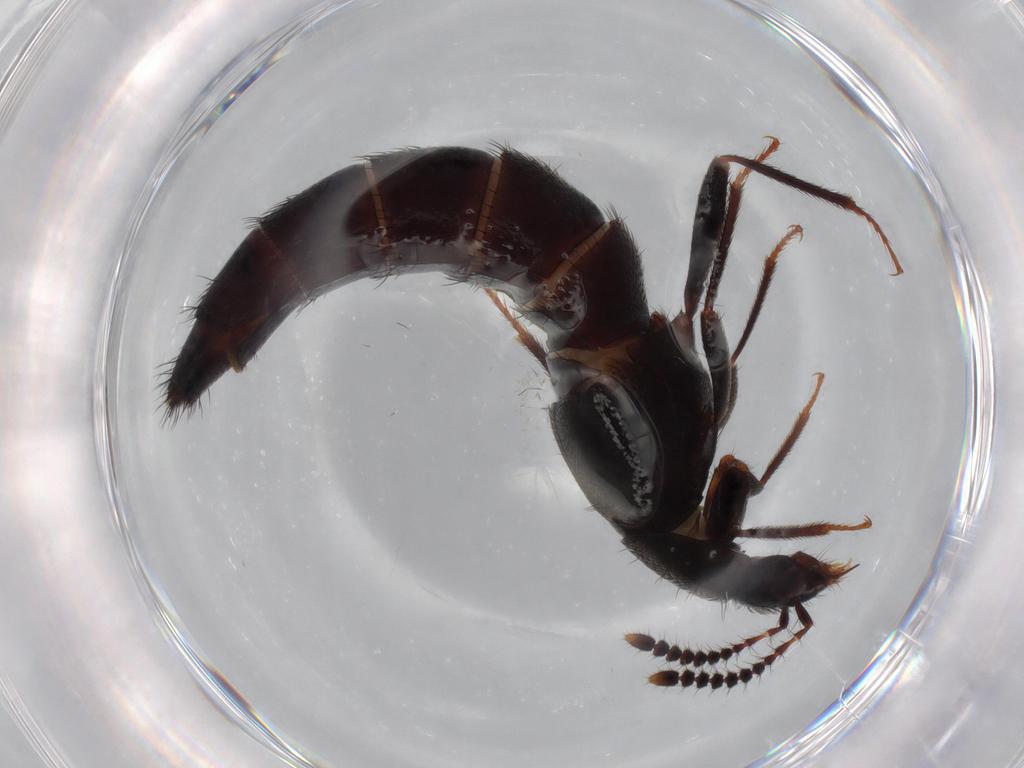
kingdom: Animalia
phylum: Arthropoda
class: Insecta
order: Coleoptera
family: Staphylinidae
